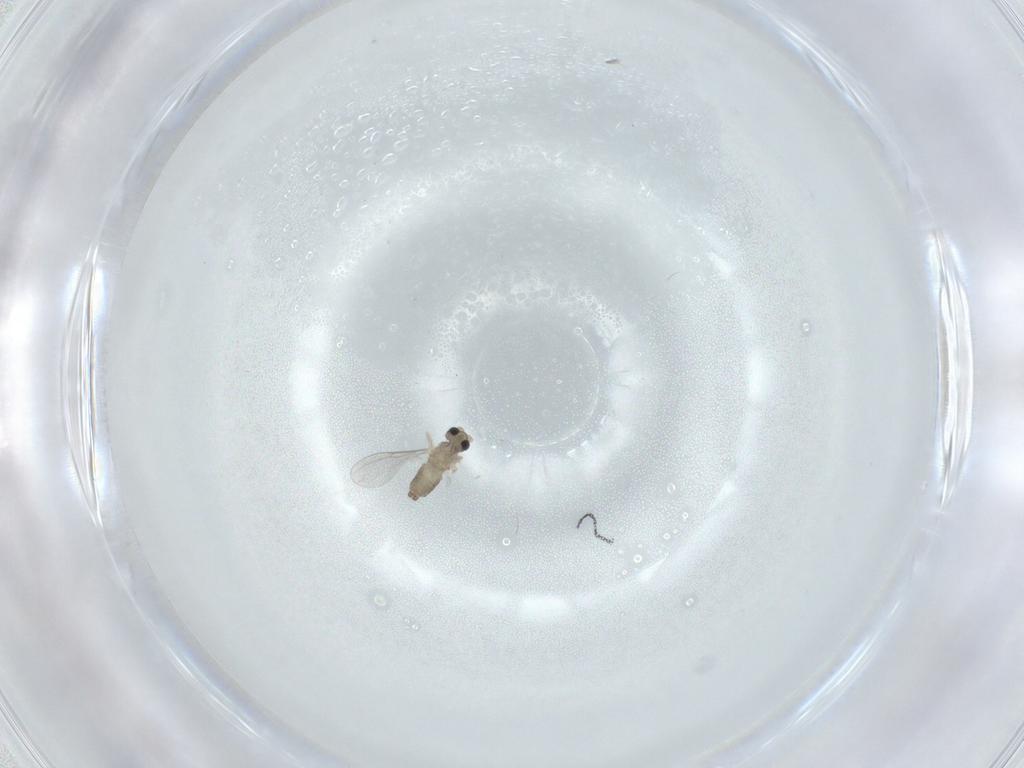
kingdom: Animalia
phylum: Arthropoda
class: Insecta
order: Diptera
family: Cecidomyiidae
